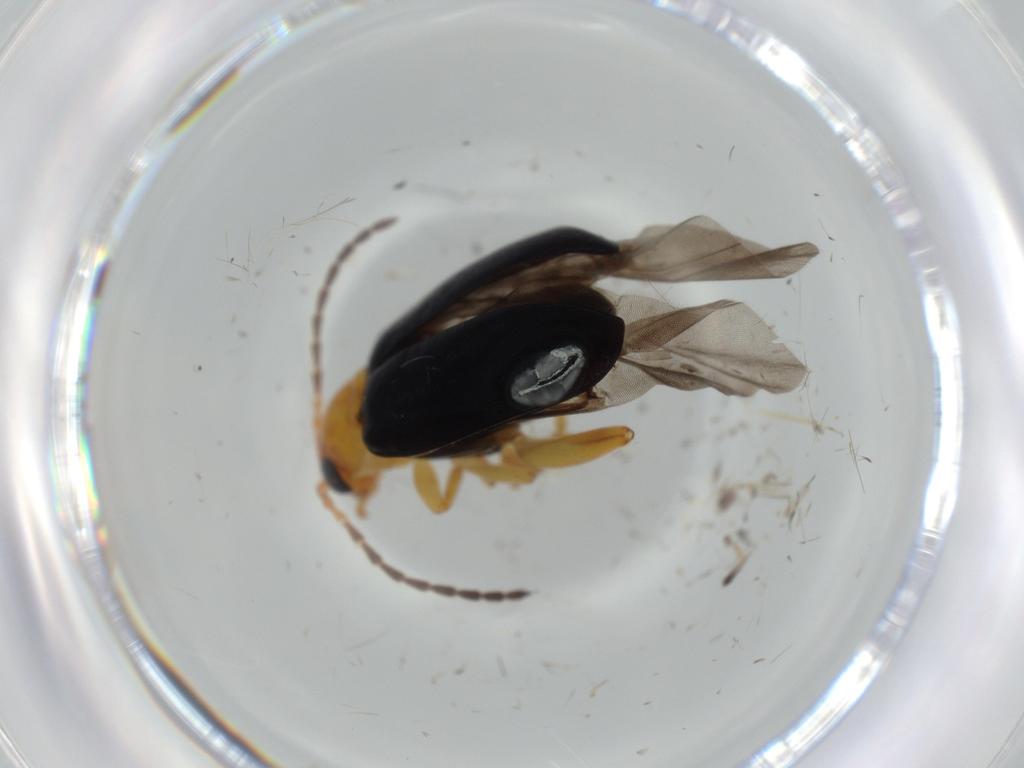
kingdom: Animalia
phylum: Arthropoda
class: Insecta
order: Coleoptera
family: Chrysomelidae
